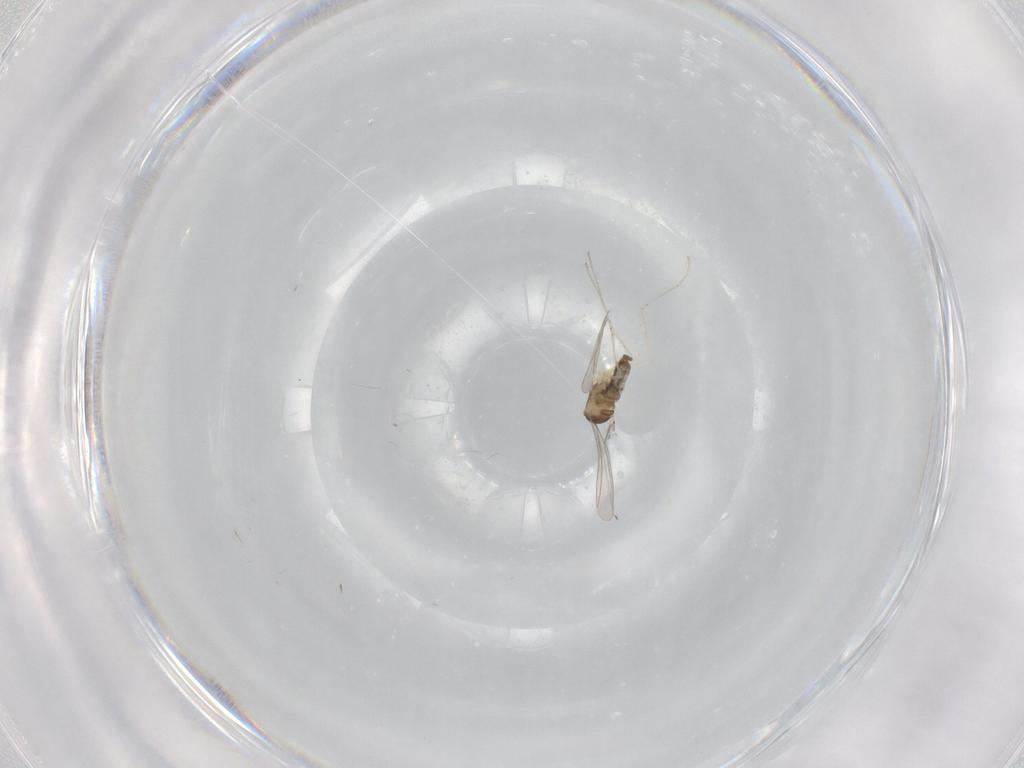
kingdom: Animalia
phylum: Arthropoda
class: Insecta
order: Diptera
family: Cecidomyiidae
